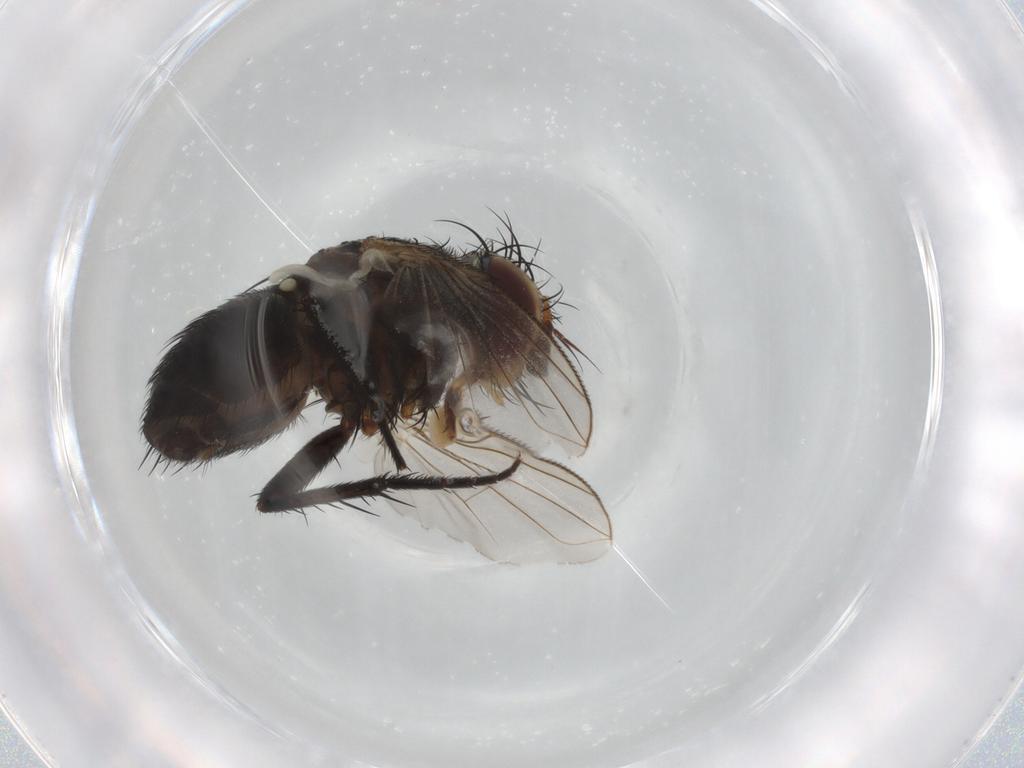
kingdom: Animalia
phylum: Arthropoda
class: Insecta
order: Diptera
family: Tachinidae
